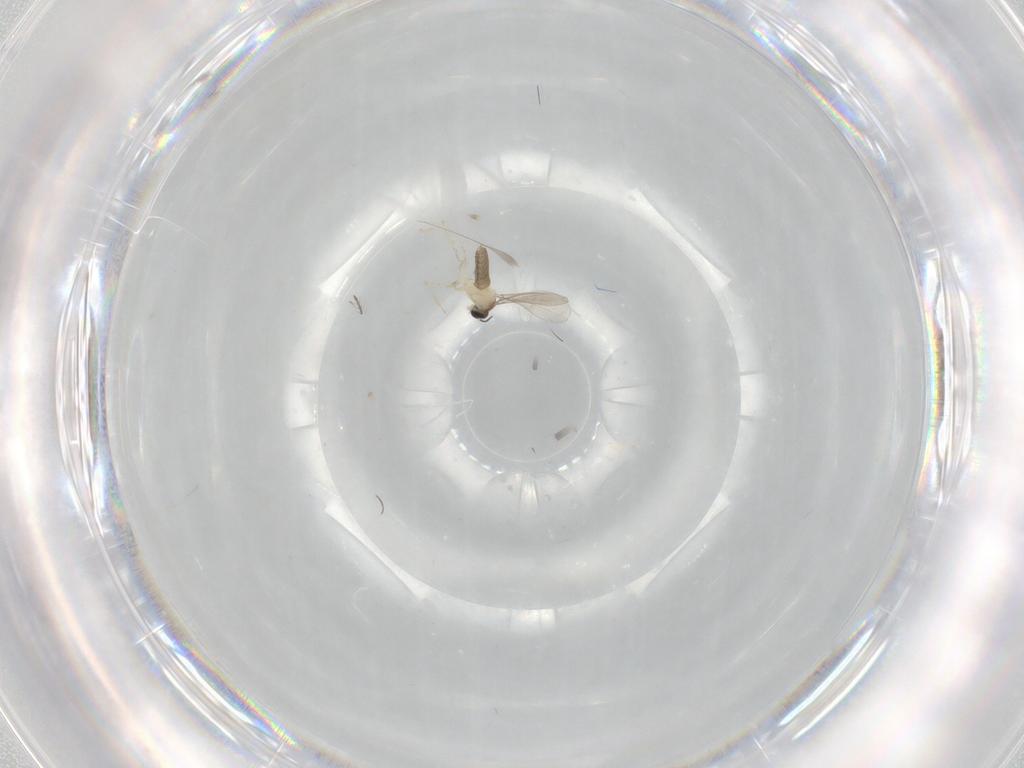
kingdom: Animalia
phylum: Arthropoda
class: Insecta
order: Diptera
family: Cecidomyiidae
